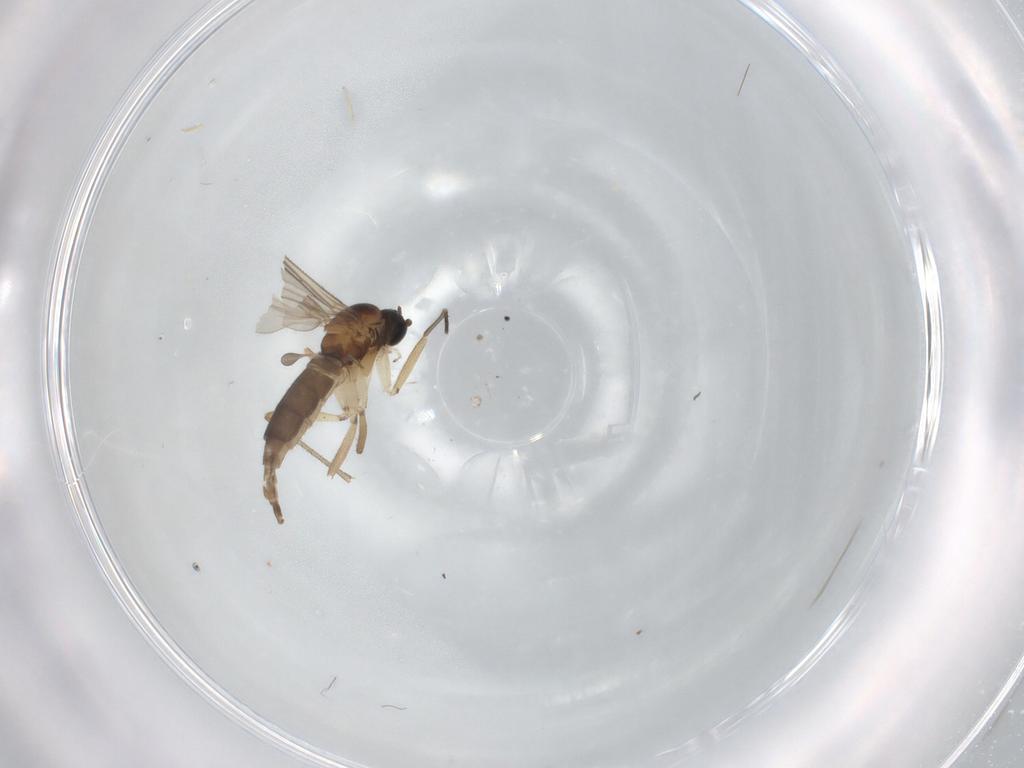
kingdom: Animalia
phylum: Arthropoda
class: Insecta
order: Diptera
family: Sciaridae
